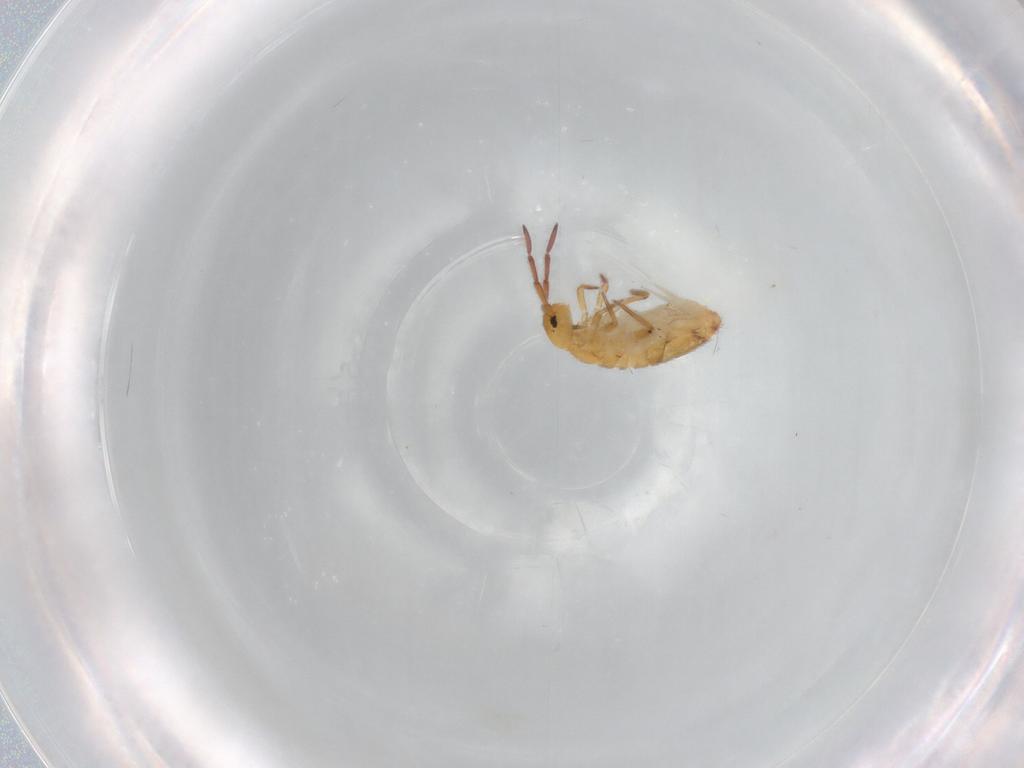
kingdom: Animalia
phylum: Arthropoda
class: Collembola
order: Entomobryomorpha
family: Entomobryidae
